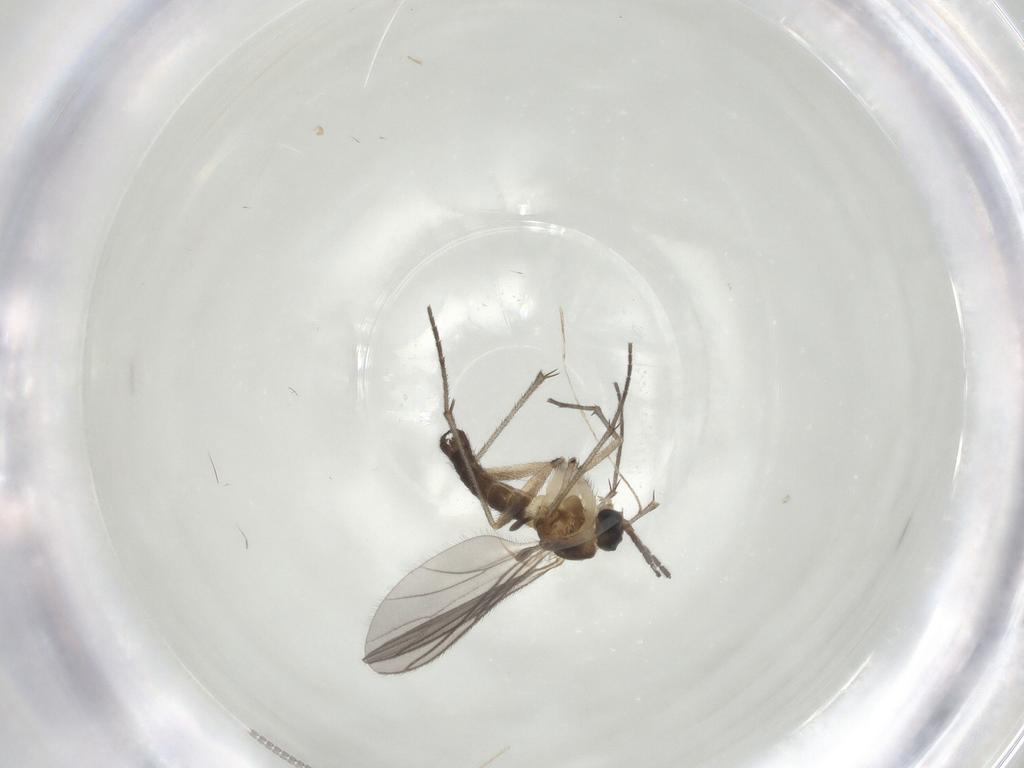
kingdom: Animalia
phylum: Arthropoda
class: Insecta
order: Diptera
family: Sciaridae
